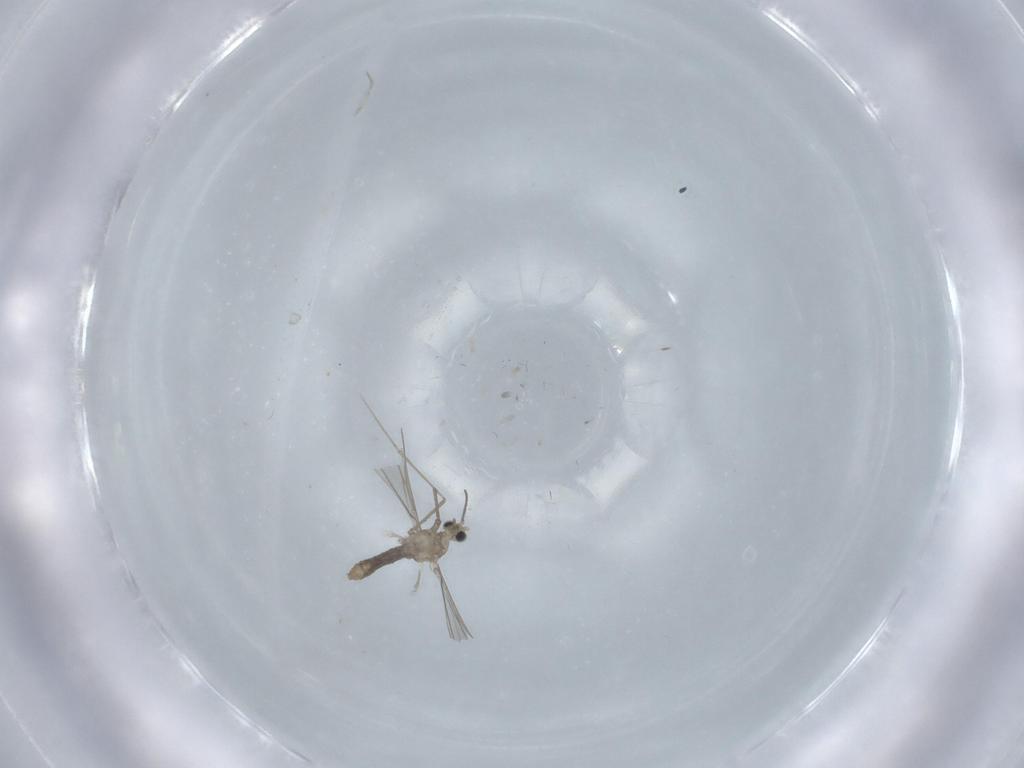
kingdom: Animalia
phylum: Arthropoda
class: Insecta
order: Diptera
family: Cecidomyiidae
